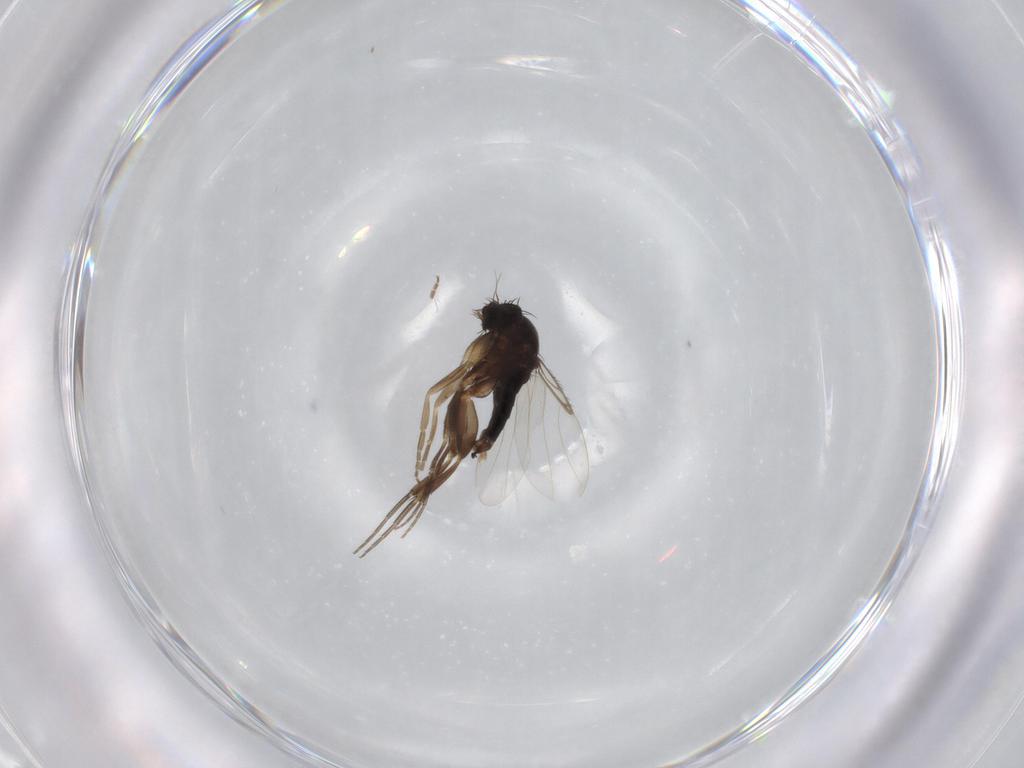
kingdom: Animalia
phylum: Arthropoda
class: Insecta
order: Diptera
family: Phoridae
